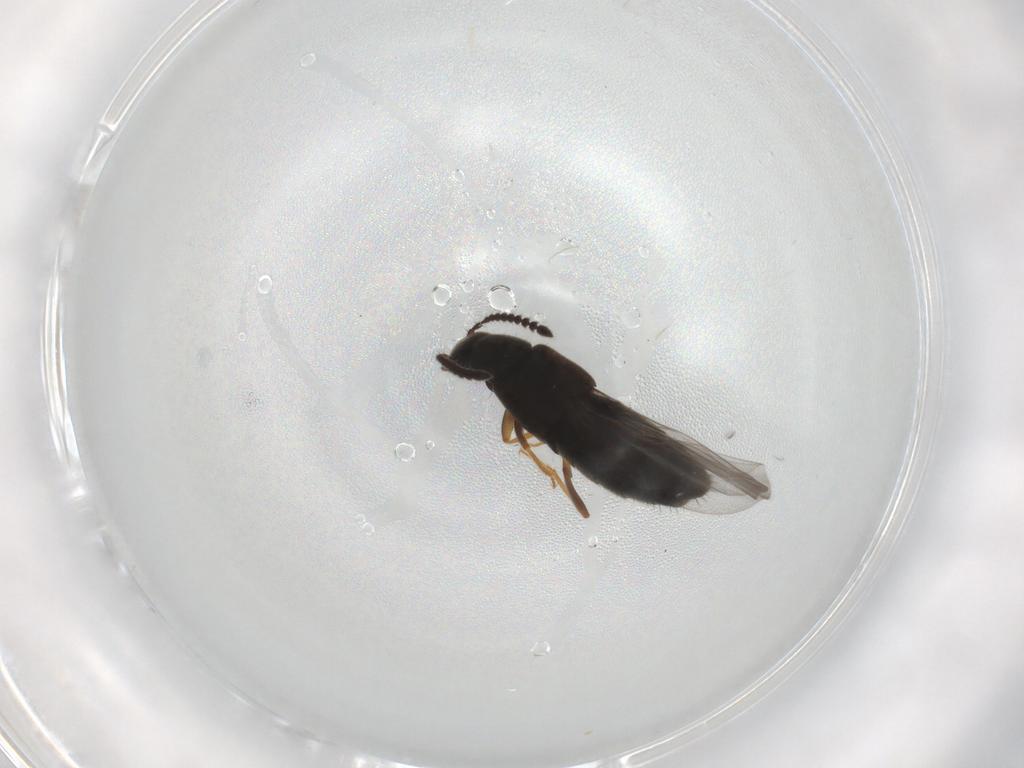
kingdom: Animalia
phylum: Arthropoda
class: Insecta
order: Coleoptera
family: Staphylinidae
